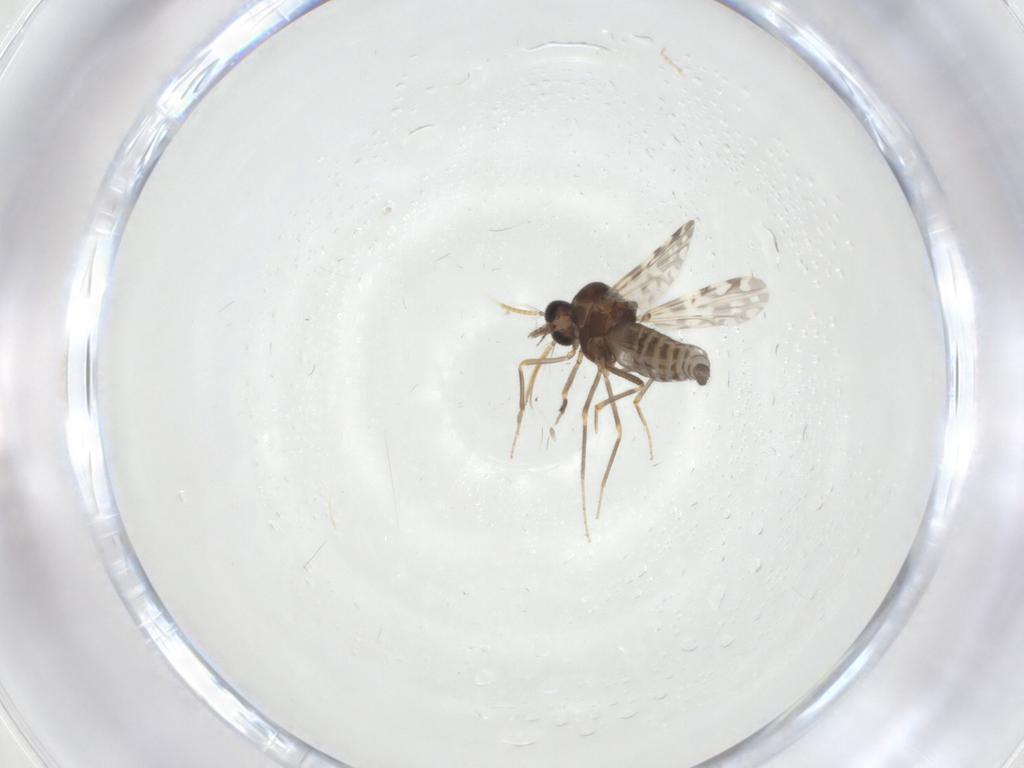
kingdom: Animalia
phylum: Arthropoda
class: Insecta
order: Diptera
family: Ceratopogonidae
